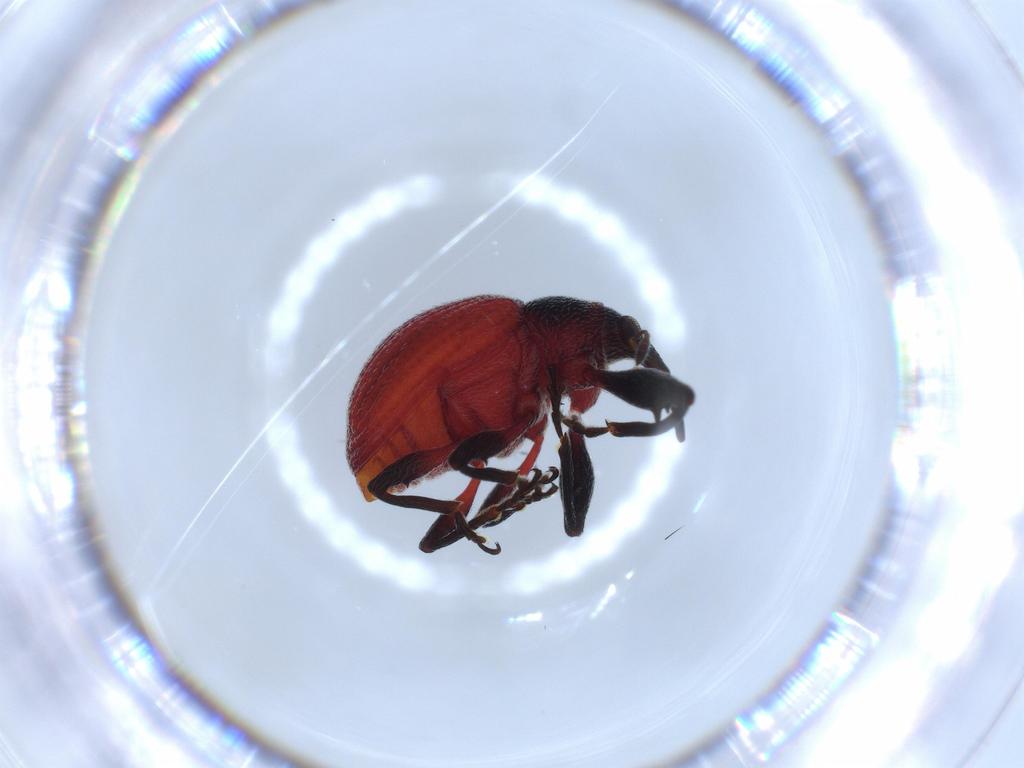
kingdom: Animalia
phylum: Arthropoda
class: Insecta
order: Coleoptera
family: Curculionidae
